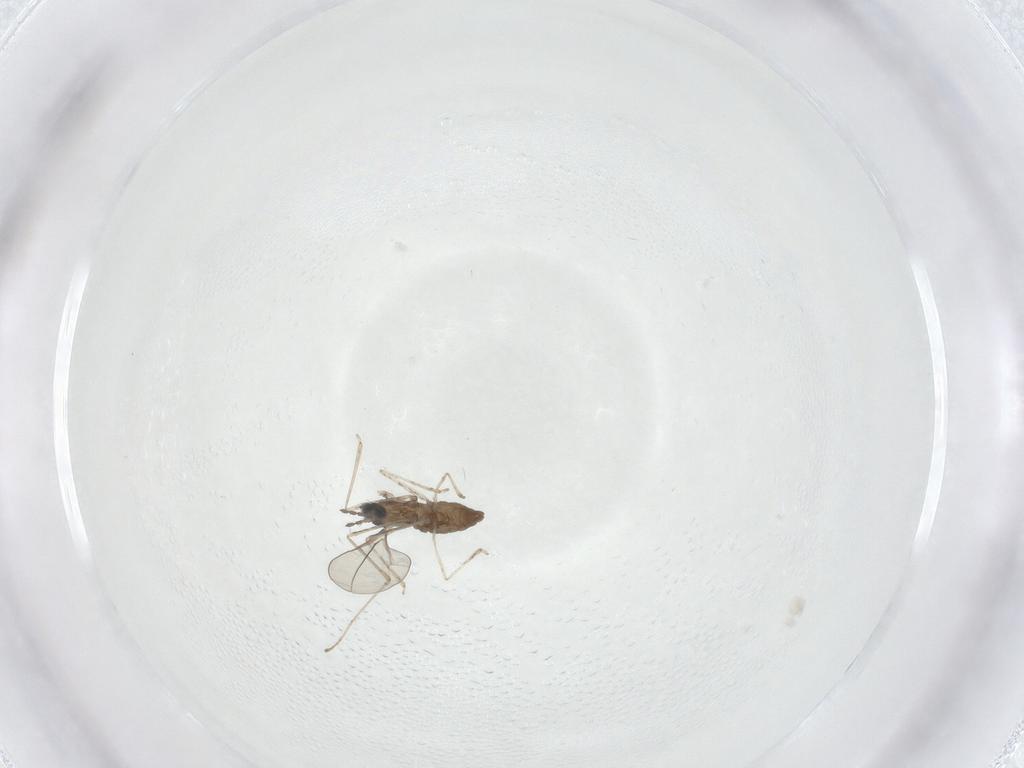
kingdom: Animalia
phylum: Arthropoda
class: Insecta
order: Diptera
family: Cecidomyiidae
